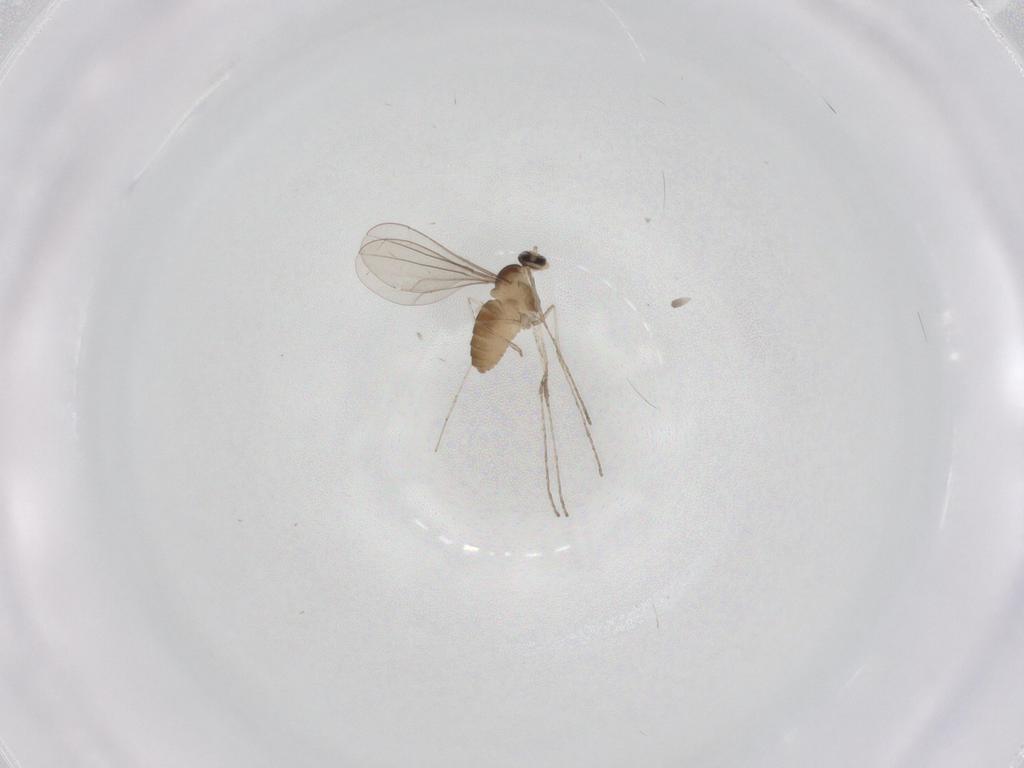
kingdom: Animalia
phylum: Arthropoda
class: Insecta
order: Diptera
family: Cecidomyiidae
